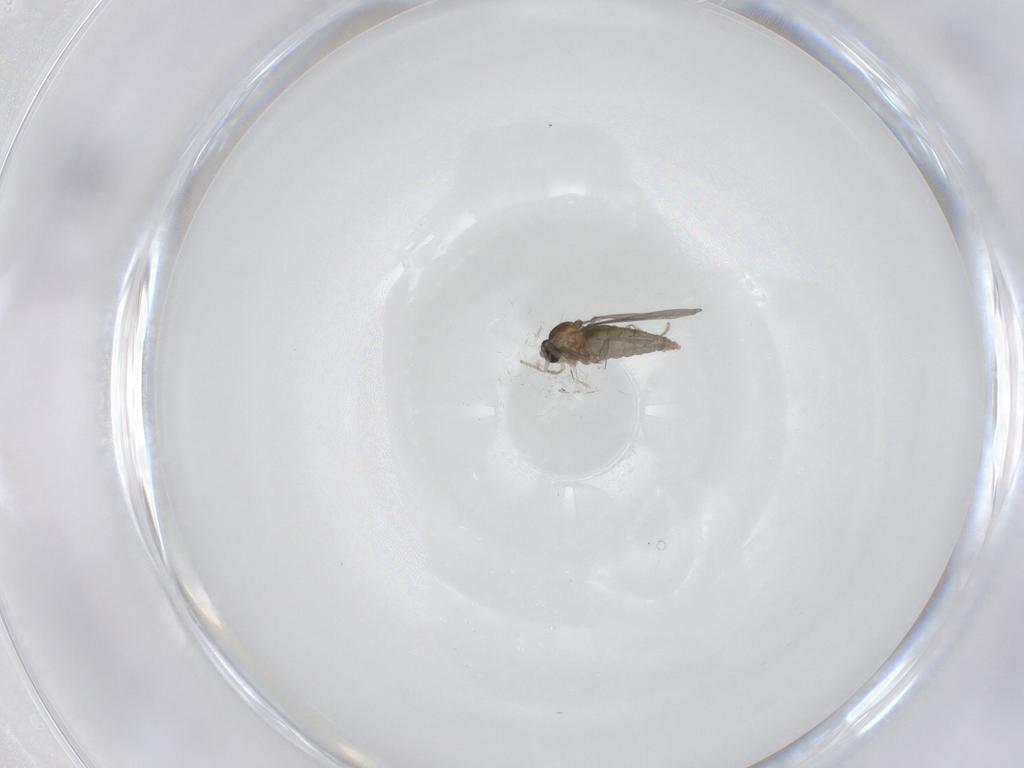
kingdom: Animalia
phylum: Arthropoda
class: Insecta
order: Diptera
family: Cecidomyiidae
